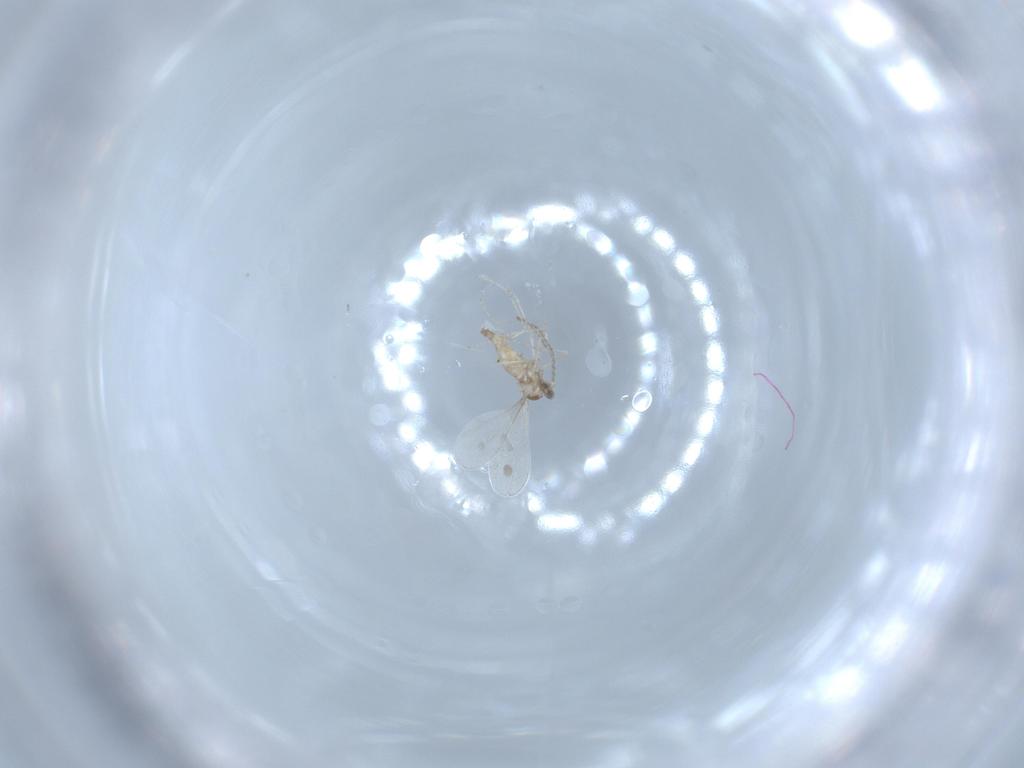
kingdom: Animalia
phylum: Arthropoda
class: Insecta
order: Diptera
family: Cecidomyiidae
